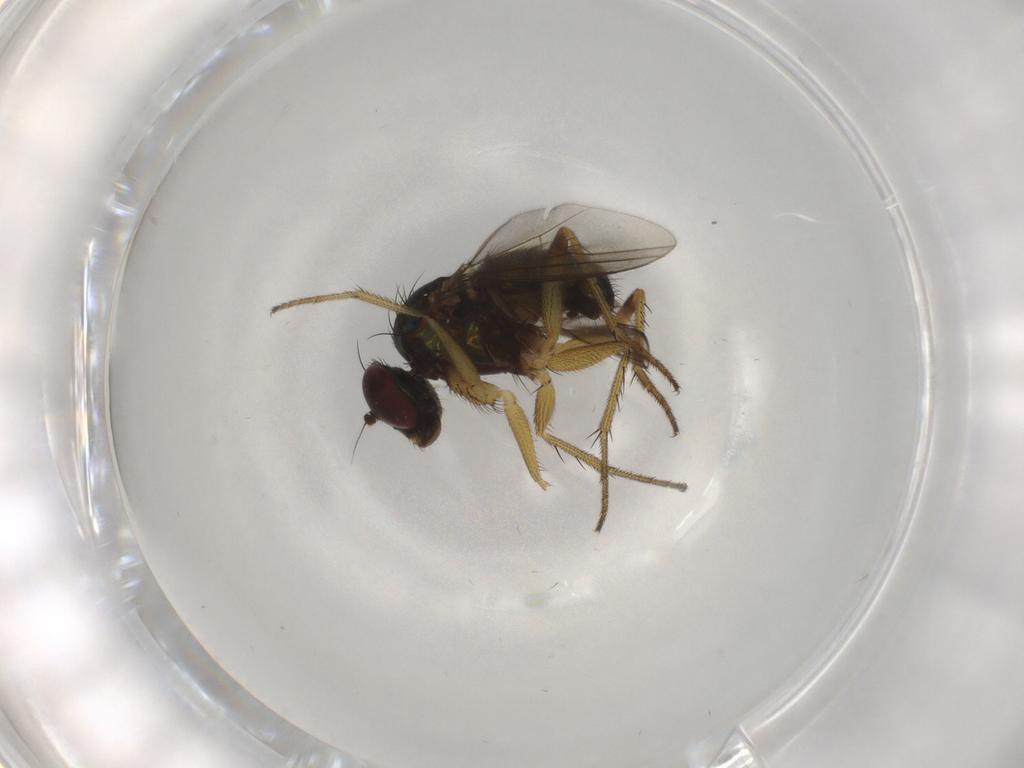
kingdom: Animalia
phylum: Arthropoda
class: Insecta
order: Diptera
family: Dolichopodidae
